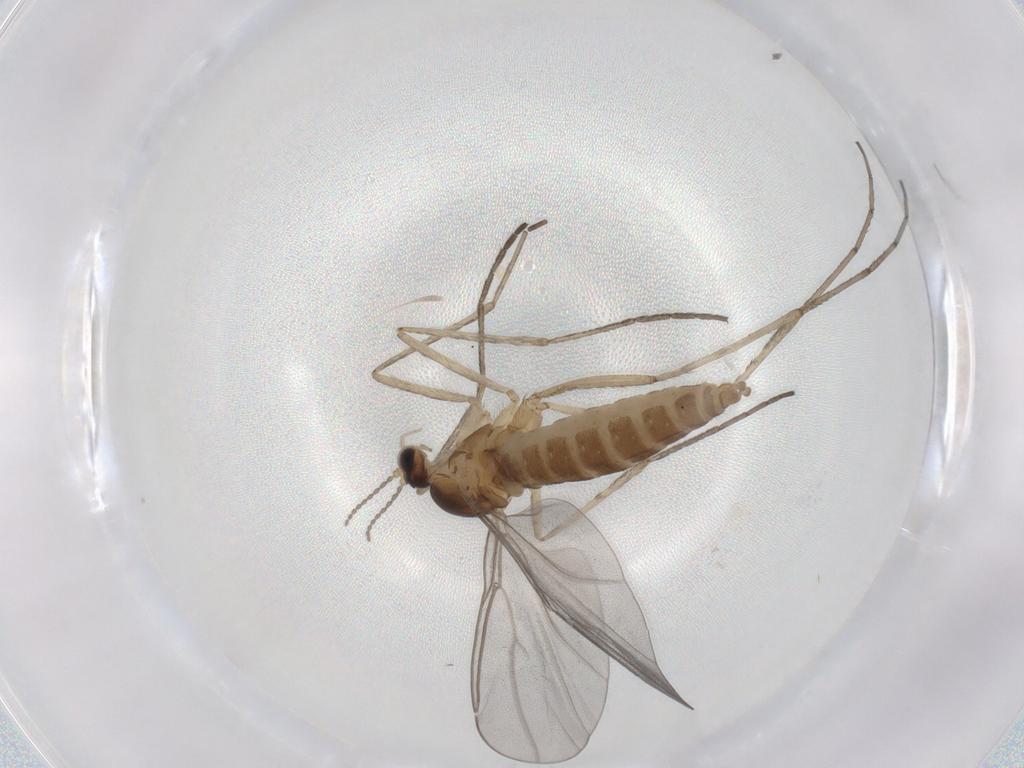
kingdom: Animalia
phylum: Arthropoda
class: Insecta
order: Diptera
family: Cecidomyiidae
